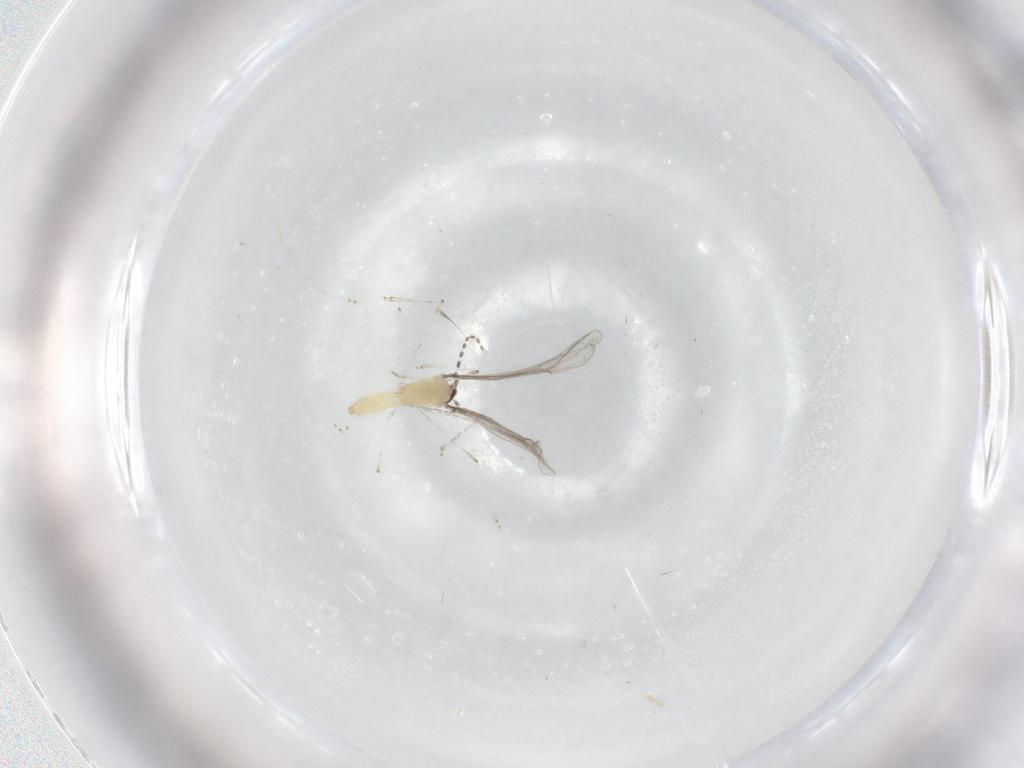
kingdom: Animalia
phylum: Arthropoda
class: Insecta
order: Diptera
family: Cecidomyiidae
